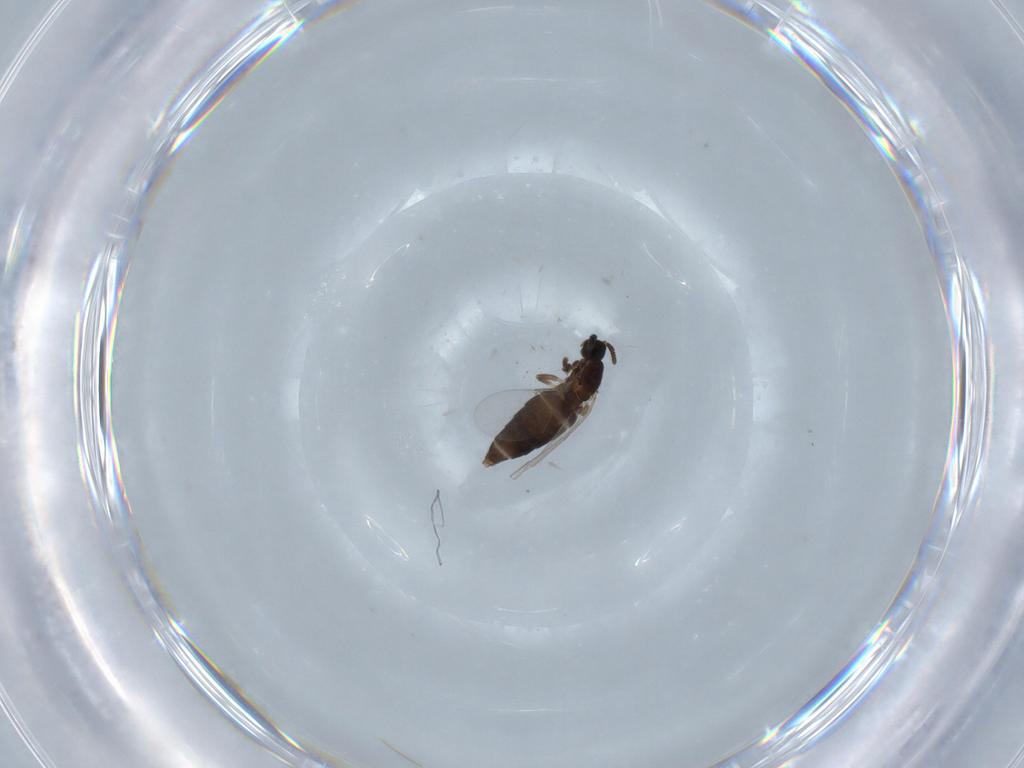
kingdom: Animalia
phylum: Arthropoda
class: Insecta
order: Diptera
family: Scatopsidae
